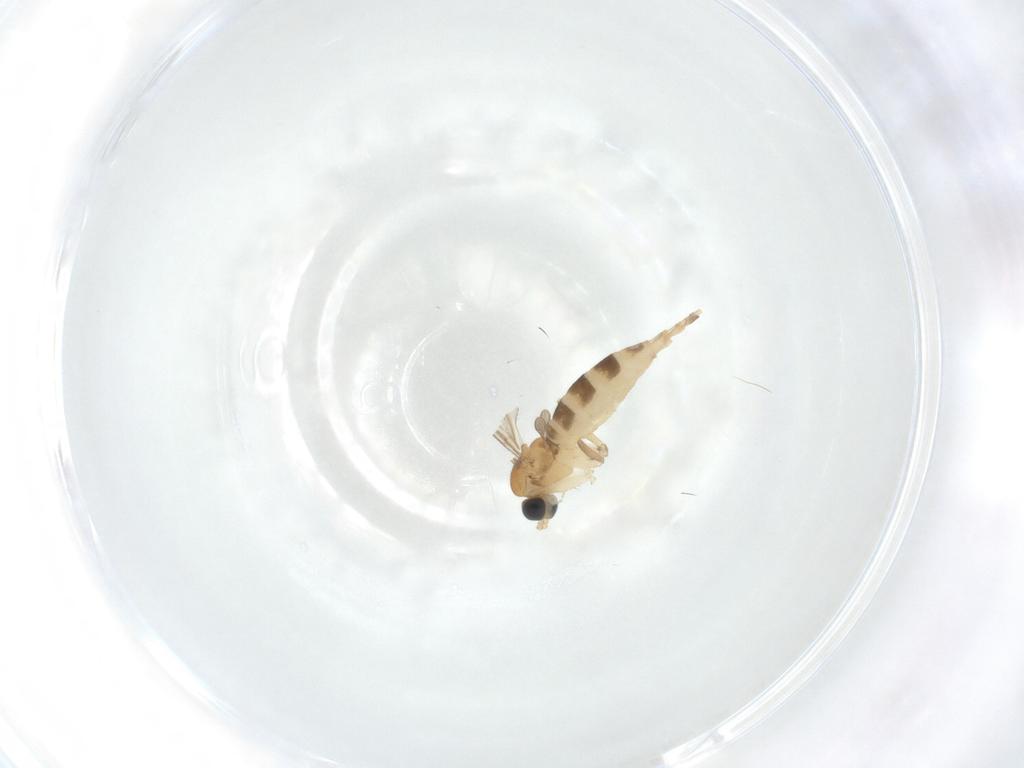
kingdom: Animalia
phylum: Arthropoda
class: Insecta
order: Diptera
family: Sciaridae
